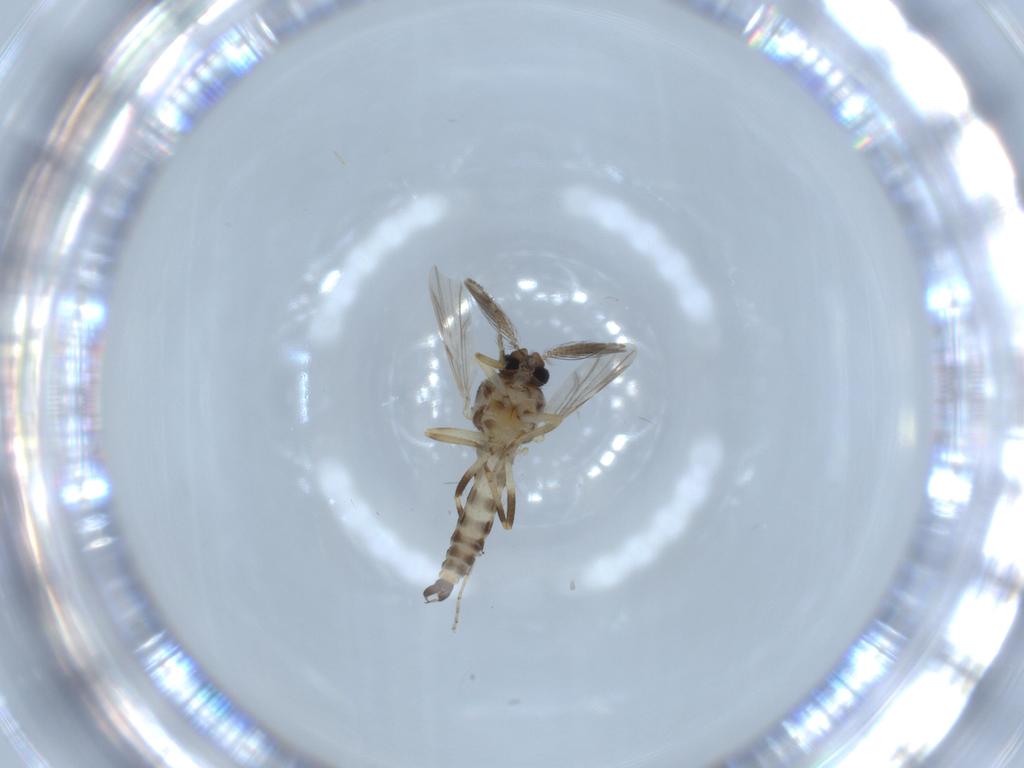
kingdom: Animalia
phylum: Arthropoda
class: Insecta
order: Diptera
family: Ceratopogonidae
